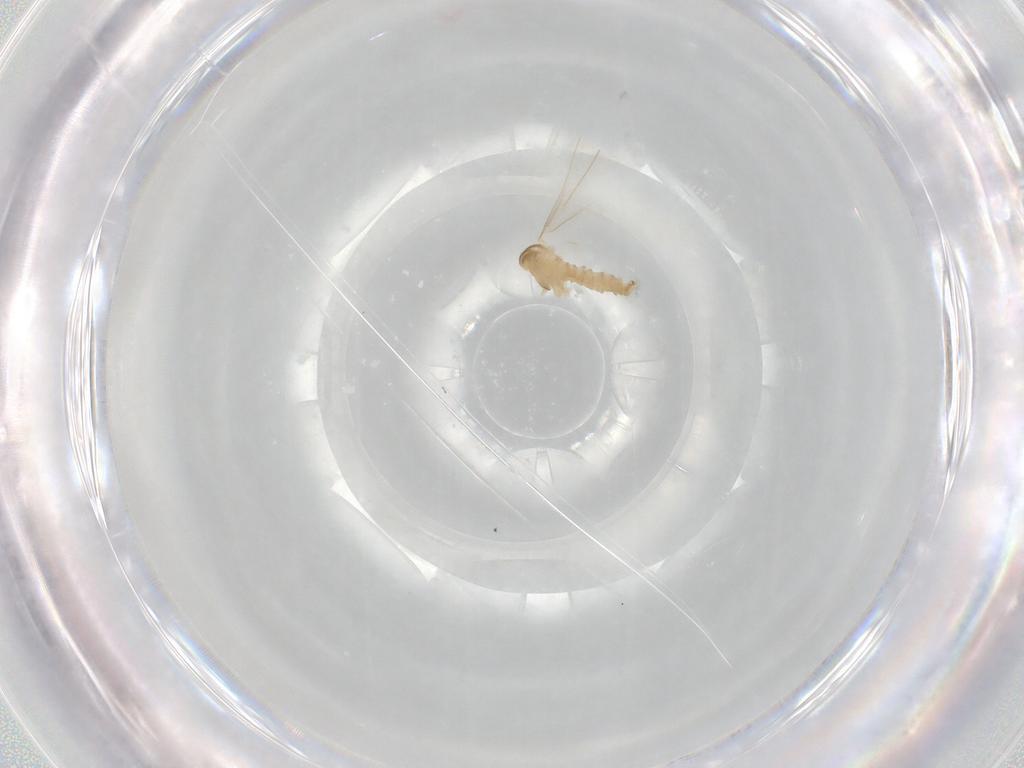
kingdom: Animalia
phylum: Arthropoda
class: Insecta
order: Diptera
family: Cecidomyiidae
